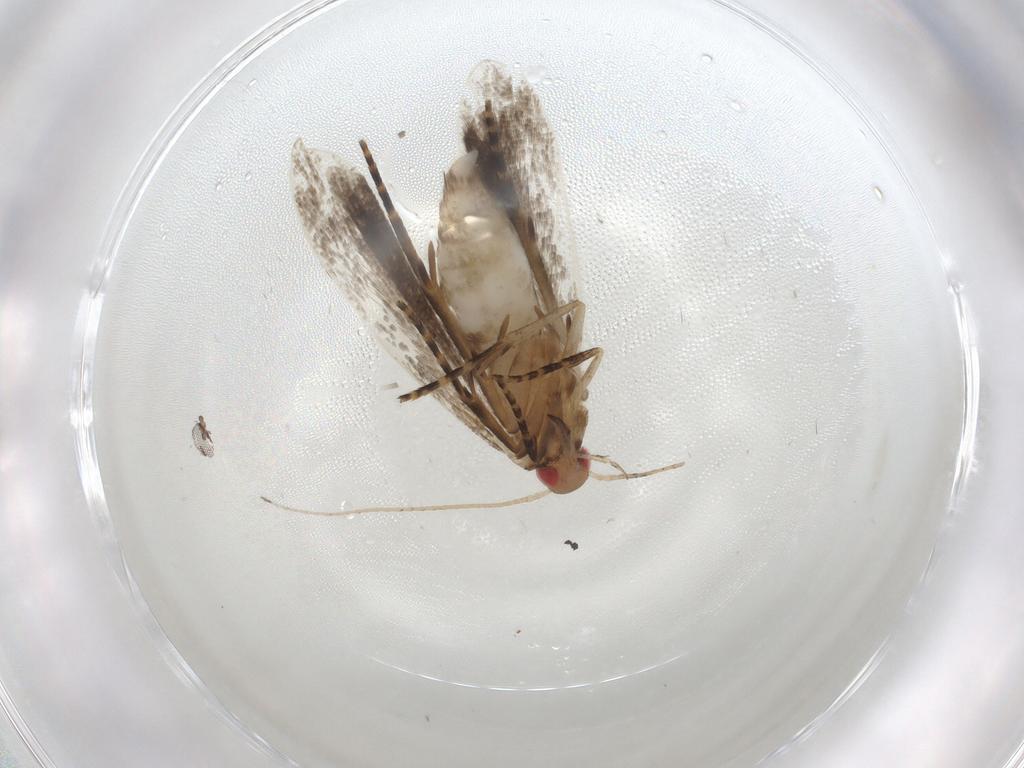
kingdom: Animalia
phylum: Arthropoda
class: Insecta
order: Lepidoptera
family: Gelechiidae
